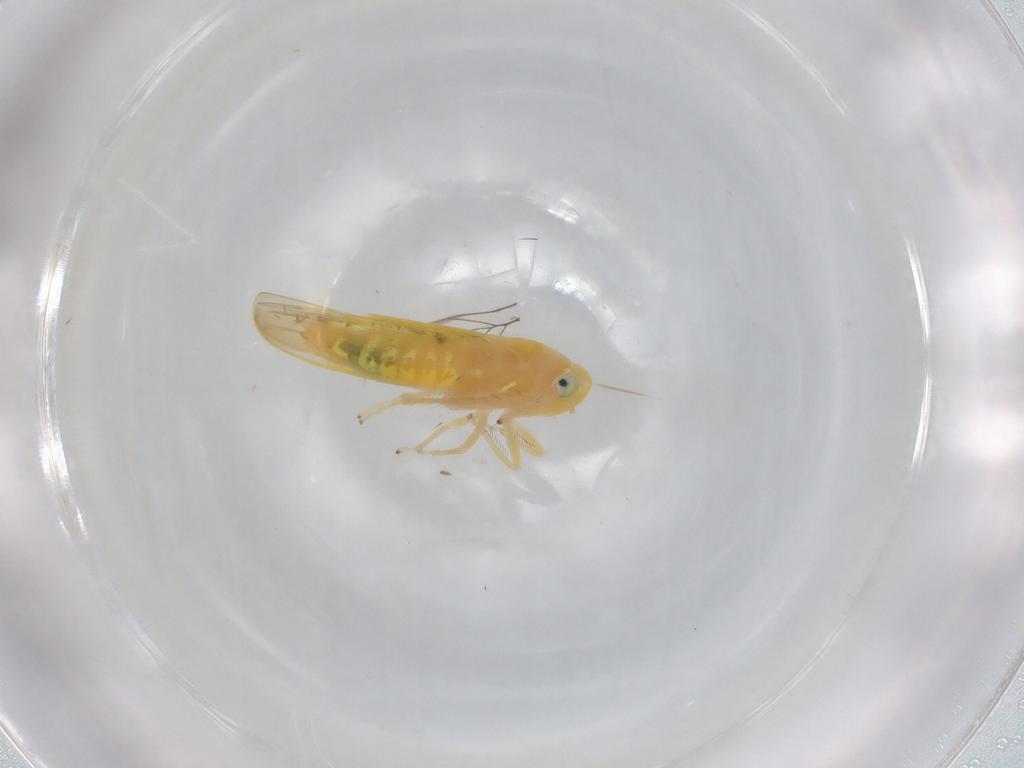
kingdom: Animalia
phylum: Arthropoda
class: Insecta
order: Hemiptera
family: Cicadellidae
